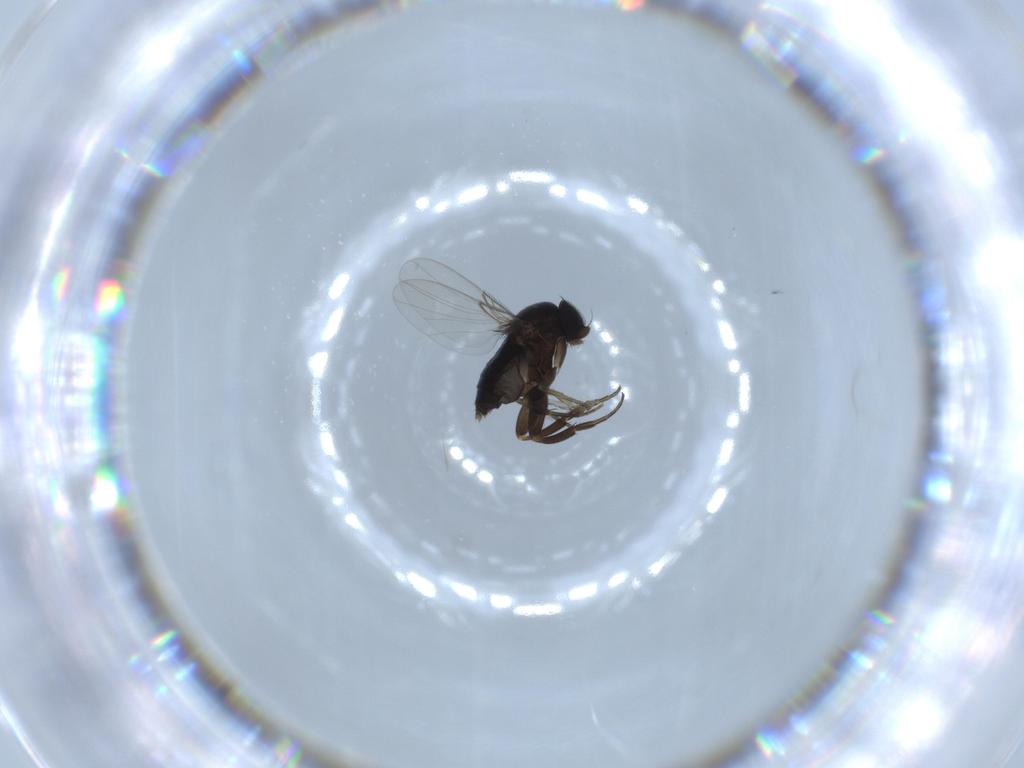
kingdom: Animalia
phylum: Arthropoda
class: Insecta
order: Diptera
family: Phoridae
